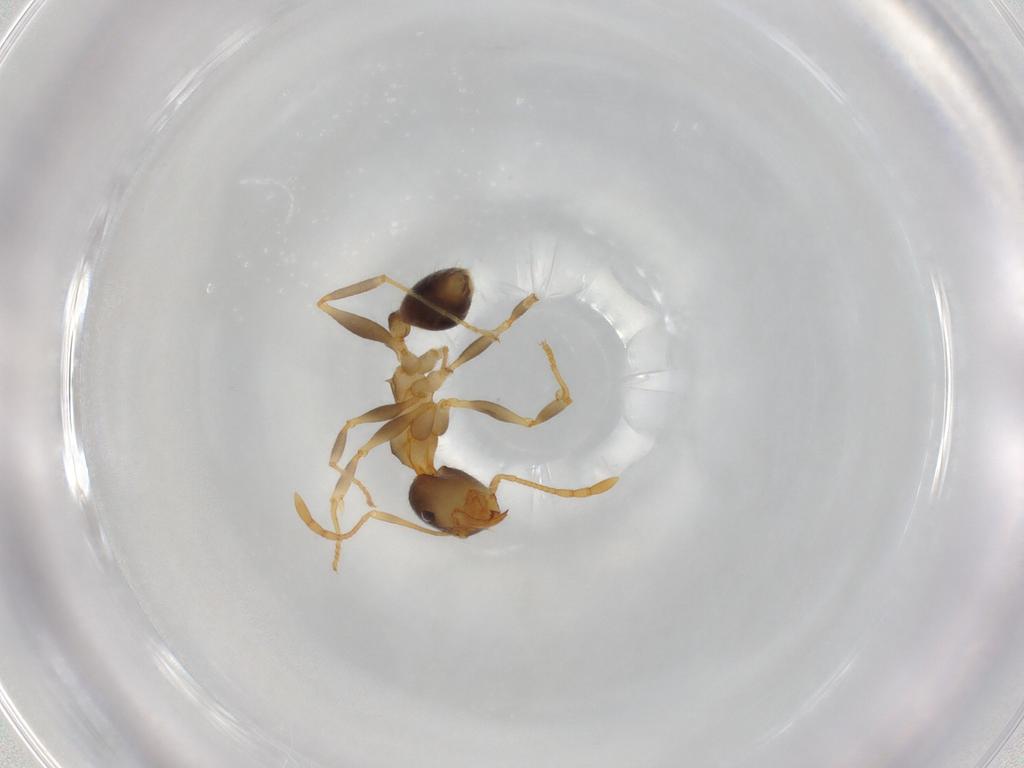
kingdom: Animalia
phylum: Arthropoda
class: Insecta
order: Hymenoptera
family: Formicidae
